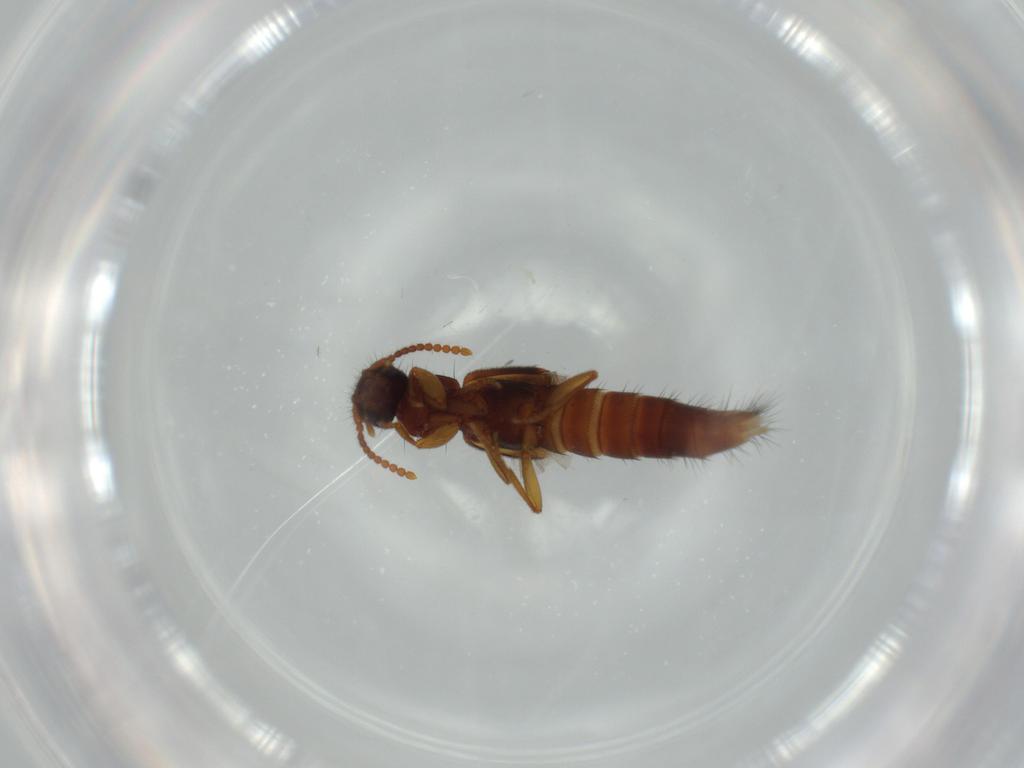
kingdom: Animalia
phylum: Arthropoda
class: Insecta
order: Coleoptera
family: Staphylinidae
